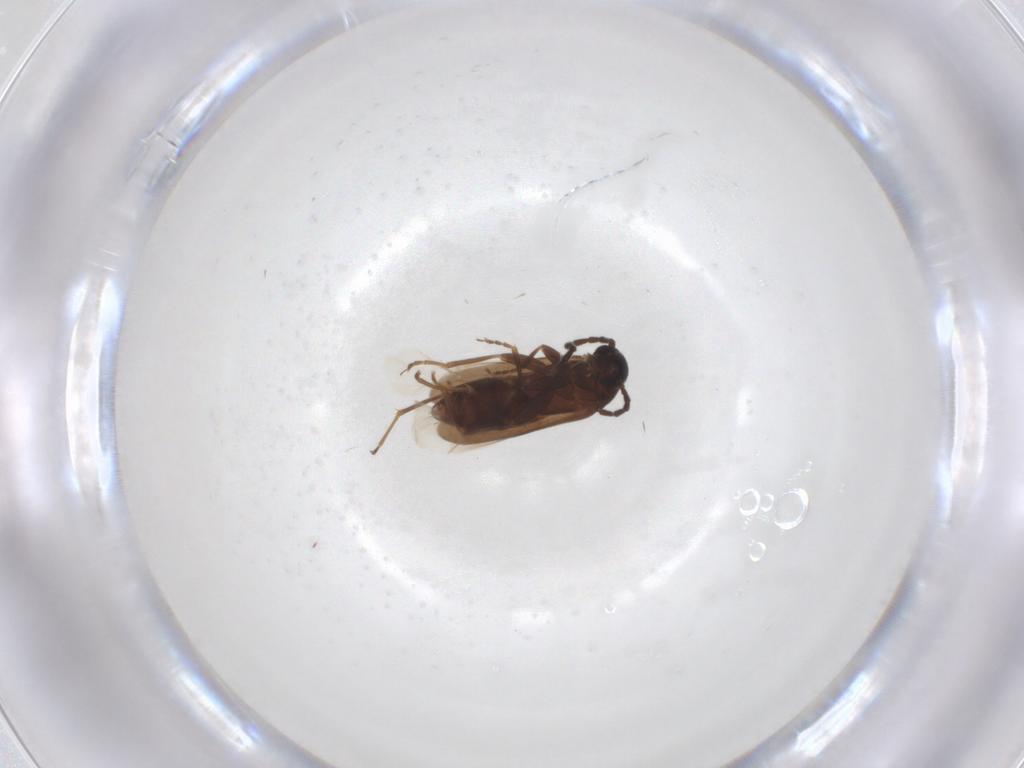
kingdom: Animalia
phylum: Arthropoda
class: Insecta
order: Coleoptera
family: Scraptiidae
